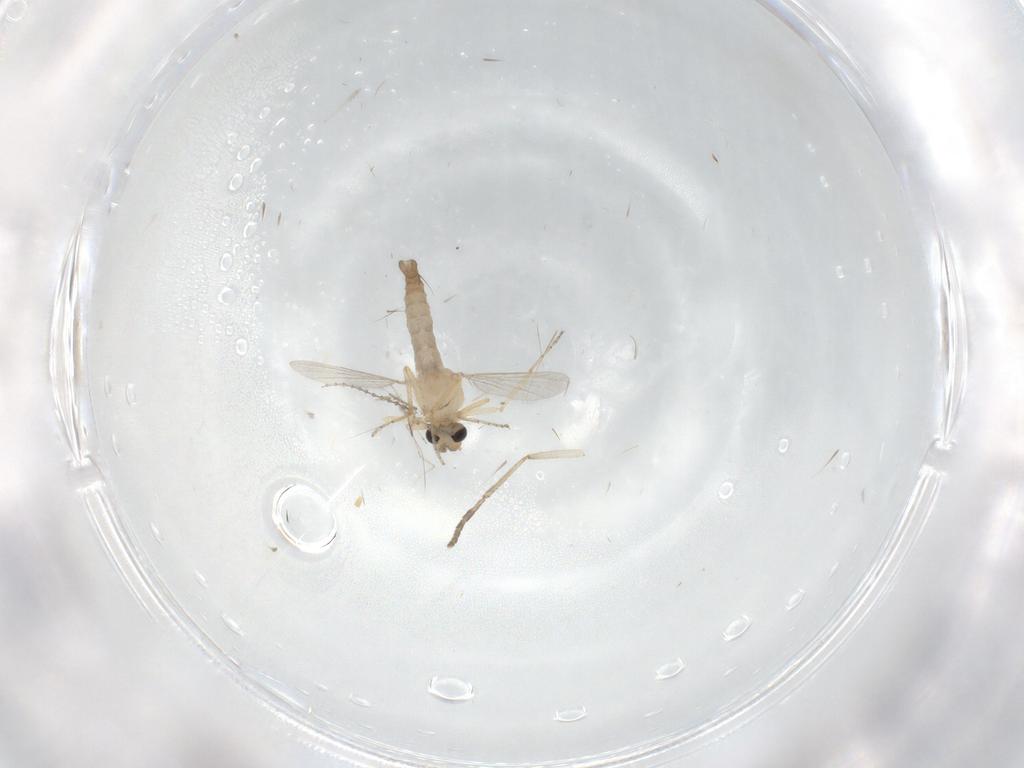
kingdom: Animalia
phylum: Arthropoda
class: Insecta
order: Diptera
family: Ceratopogonidae
